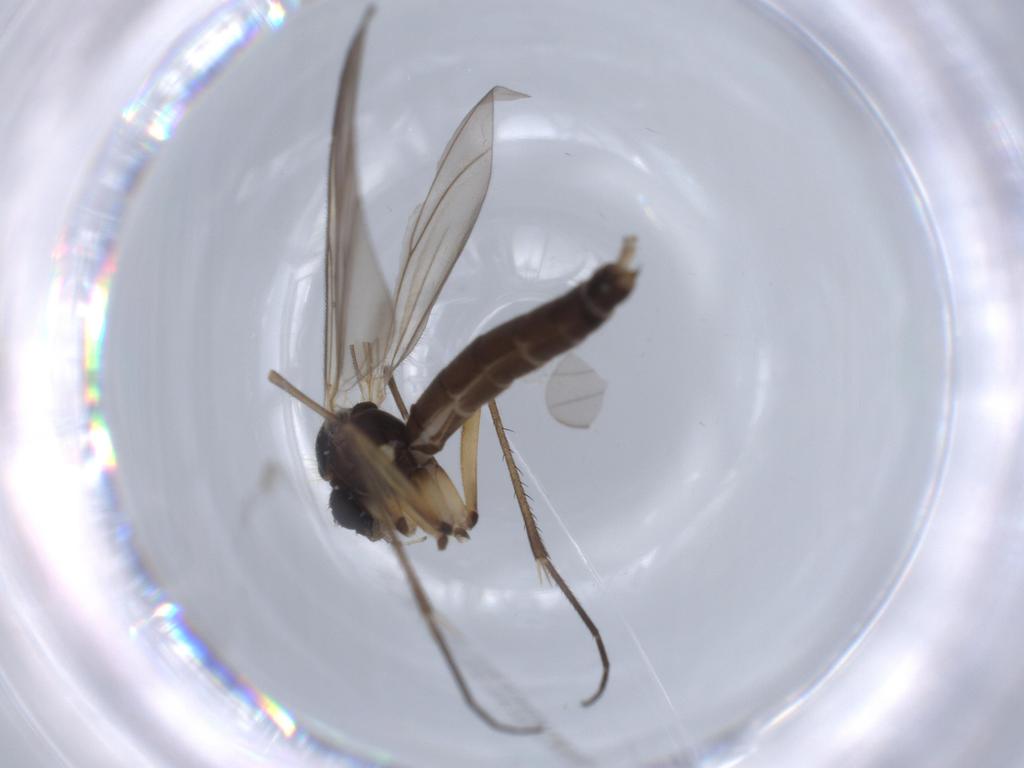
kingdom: Animalia
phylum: Arthropoda
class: Insecta
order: Diptera
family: Mycetophilidae
